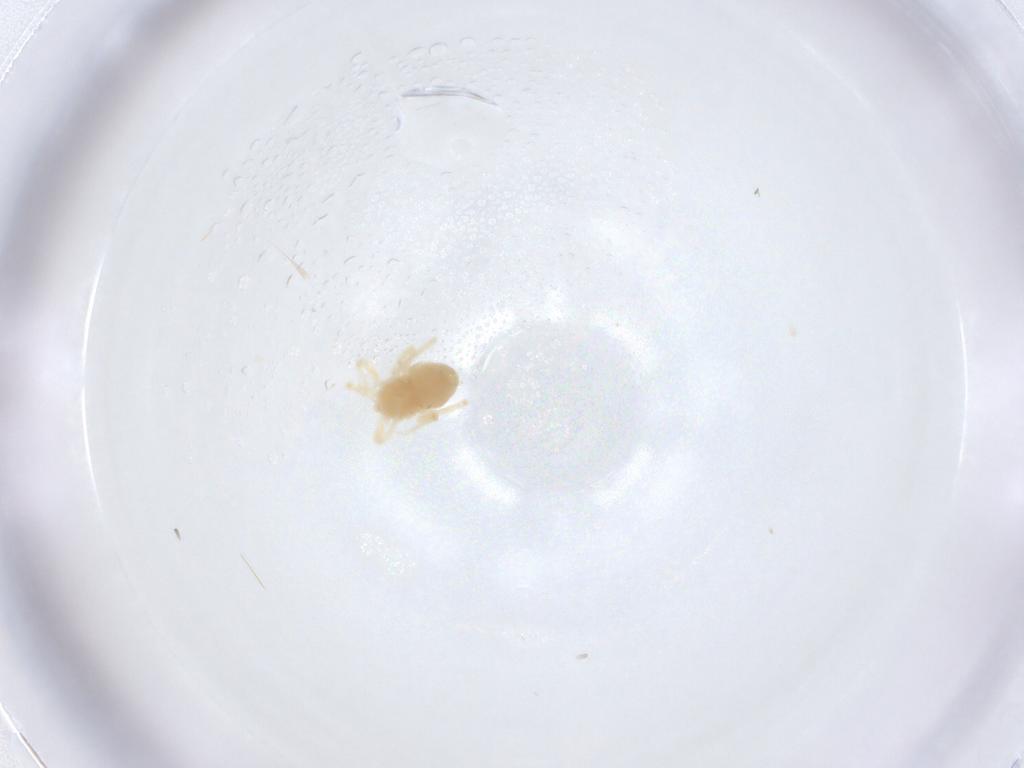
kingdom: Animalia
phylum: Arthropoda
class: Arachnida
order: Trombidiformes
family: Anystidae
